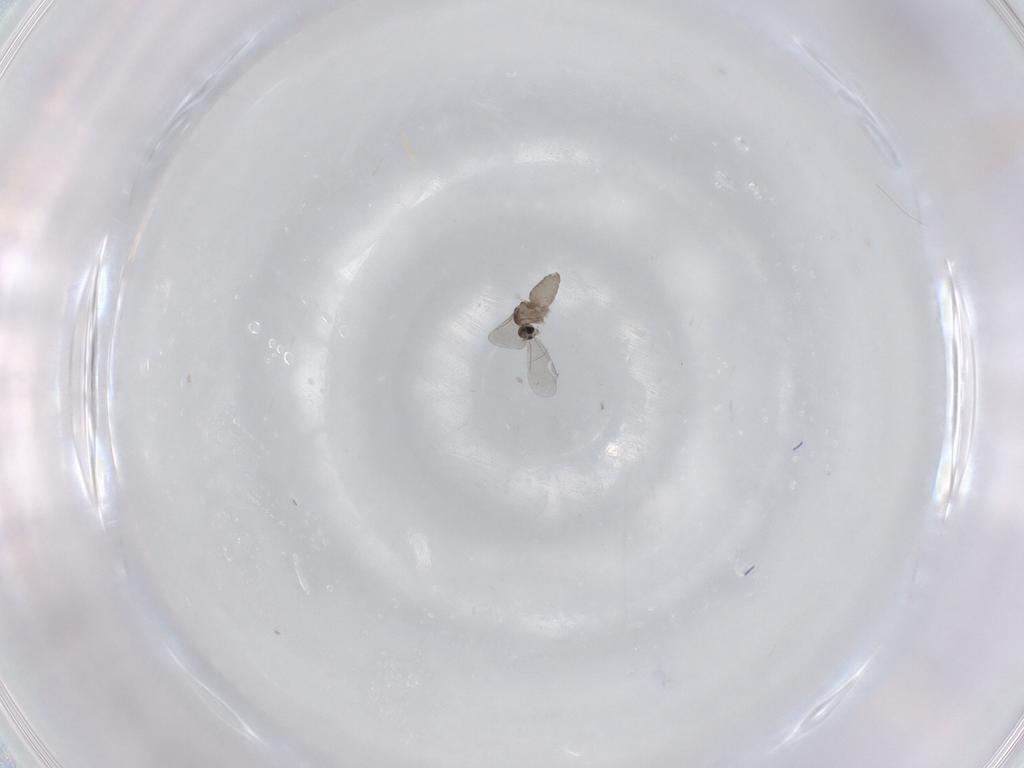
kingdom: Animalia
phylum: Arthropoda
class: Insecta
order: Diptera
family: Cecidomyiidae
